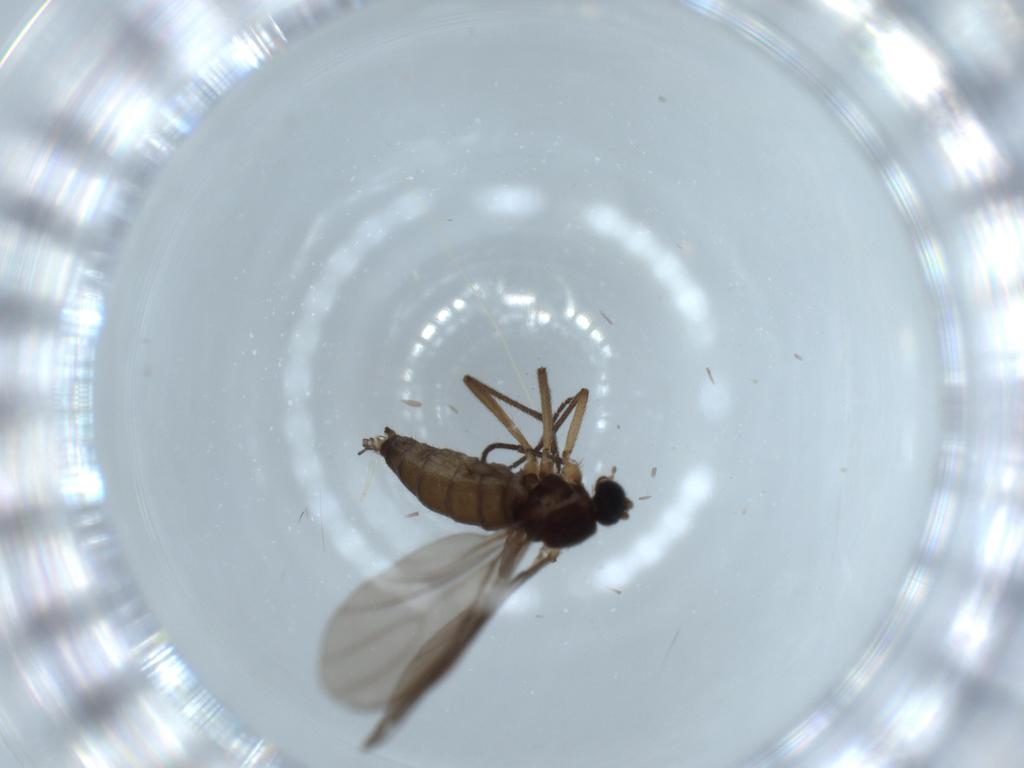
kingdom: Animalia
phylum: Arthropoda
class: Insecta
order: Diptera
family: Sciaridae
